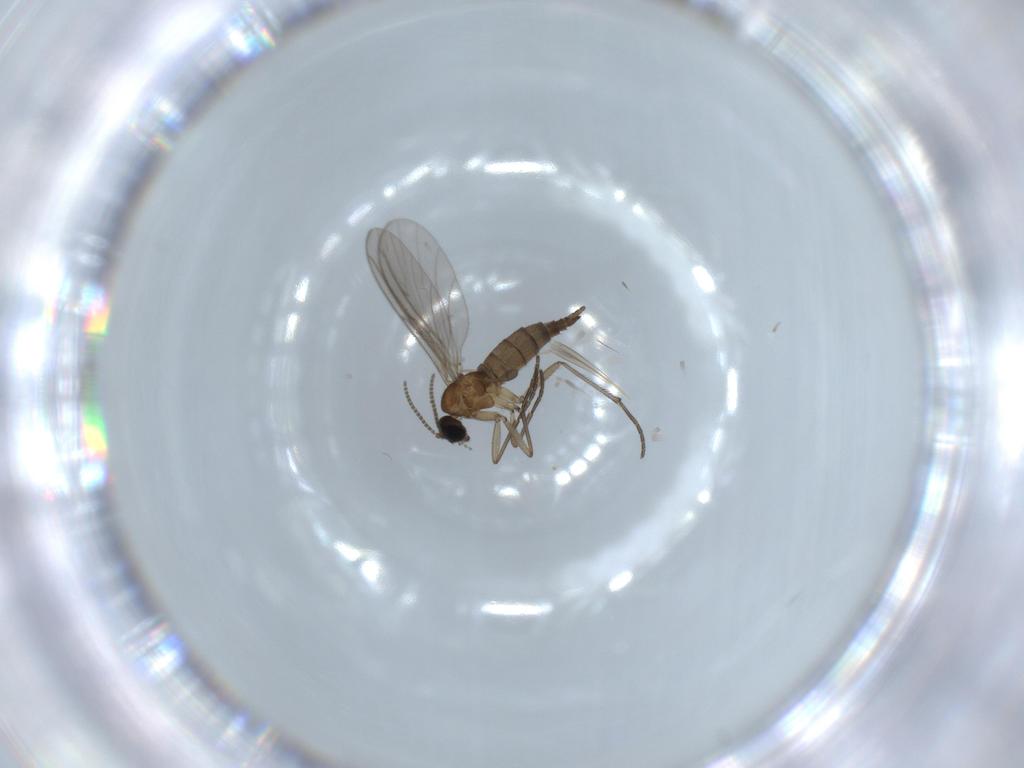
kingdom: Animalia
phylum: Arthropoda
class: Insecta
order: Diptera
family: Sciaridae
